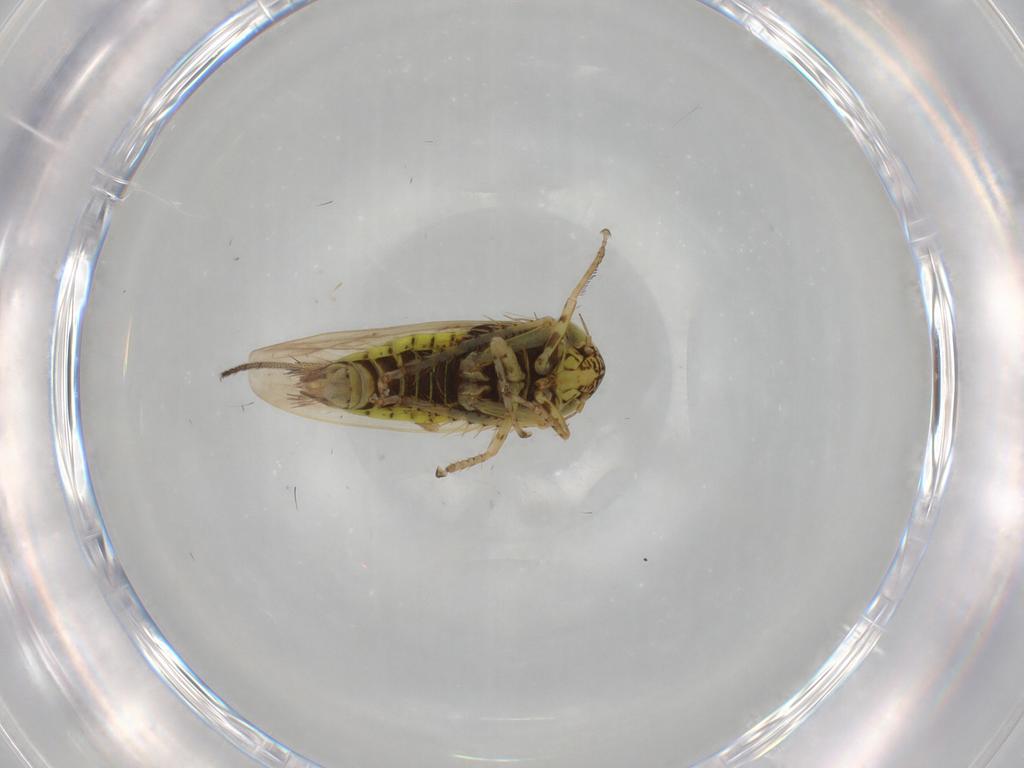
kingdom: Animalia
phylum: Arthropoda
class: Insecta
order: Hemiptera
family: Cicadellidae
